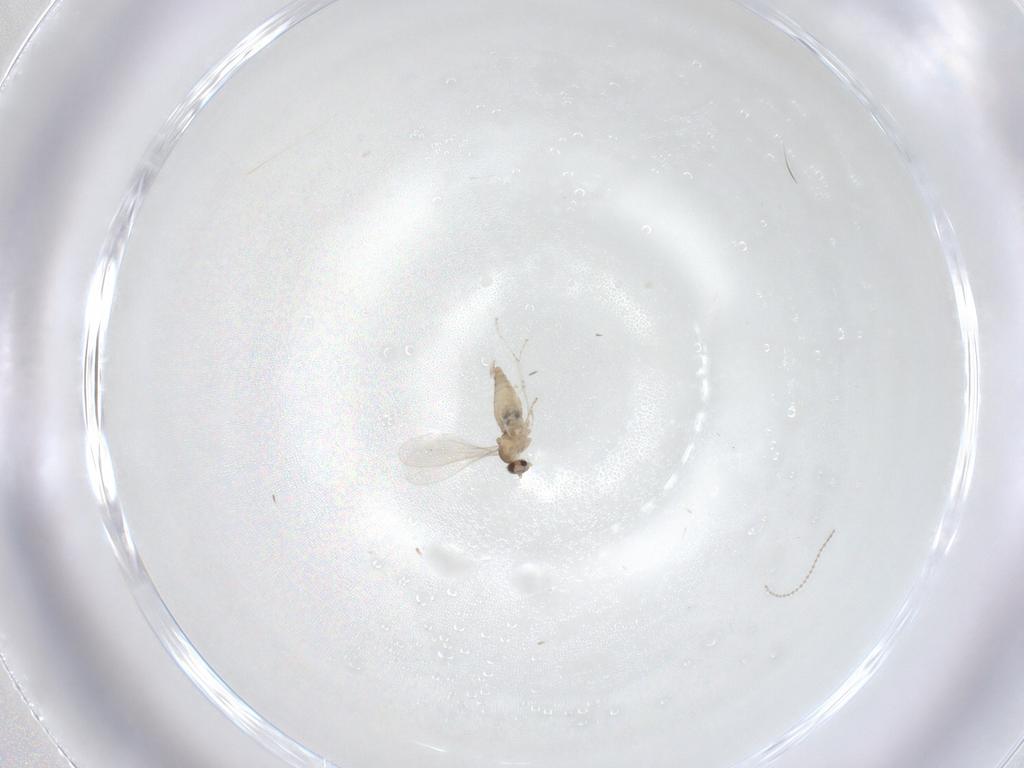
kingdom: Animalia
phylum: Arthropoda
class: Insecta
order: Diptera
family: Cecidomyiidae
